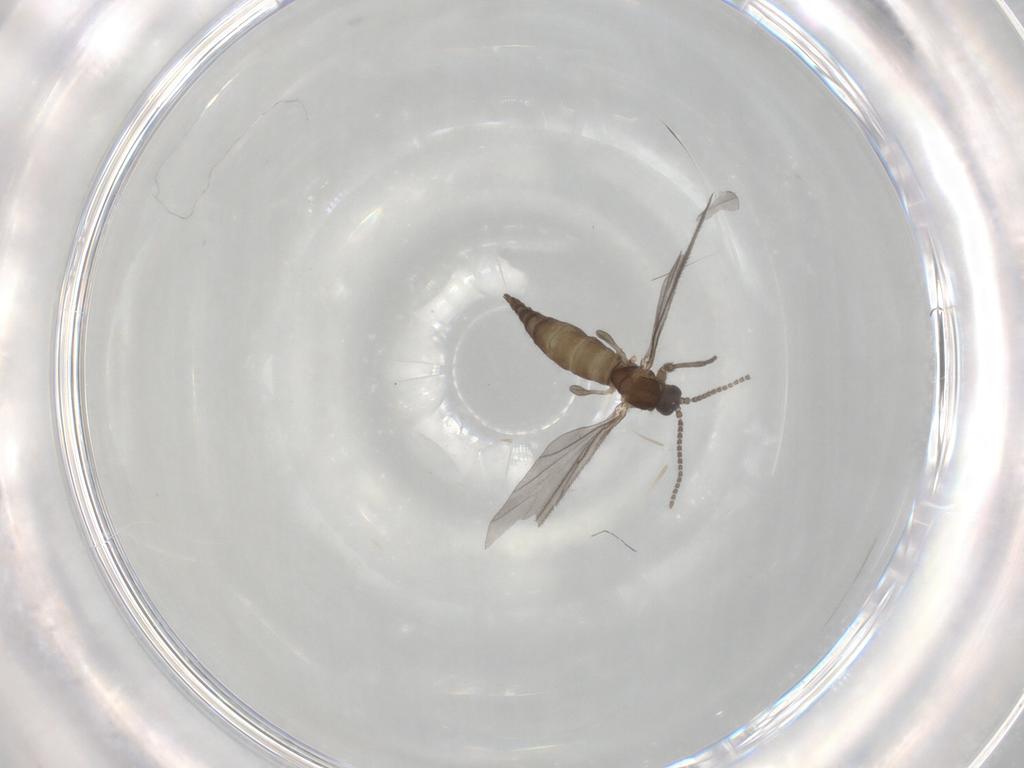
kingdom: Animalia
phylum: Arthropoda
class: Insecta
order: Diptera
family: Sciaridae
